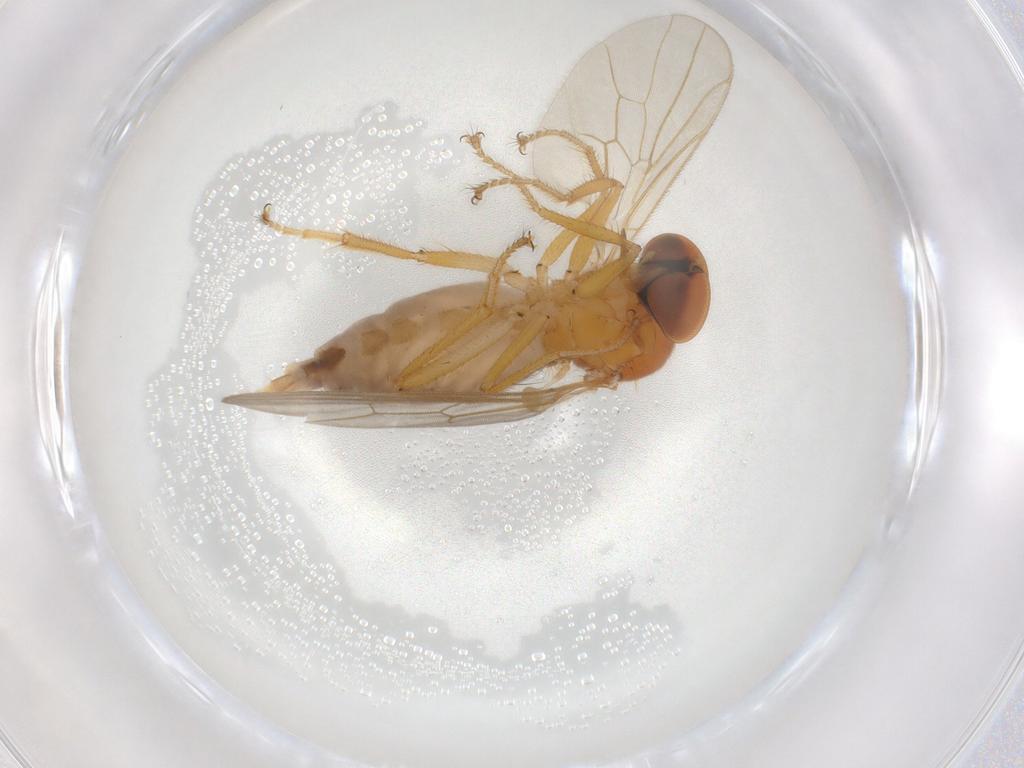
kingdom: Animalia
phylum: Arthropoda
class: Insecta
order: Diptera
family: Hybotidae
